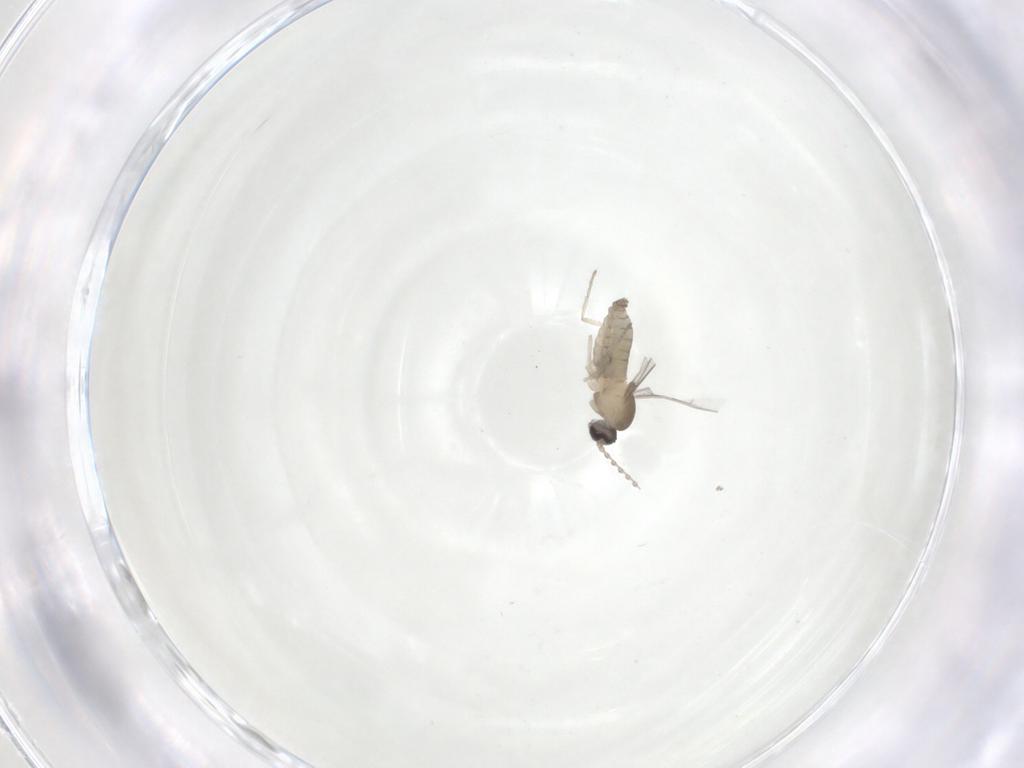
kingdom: Animalia
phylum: Arthropoda
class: Insecta
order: Diptera
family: Cecidomyiidae
